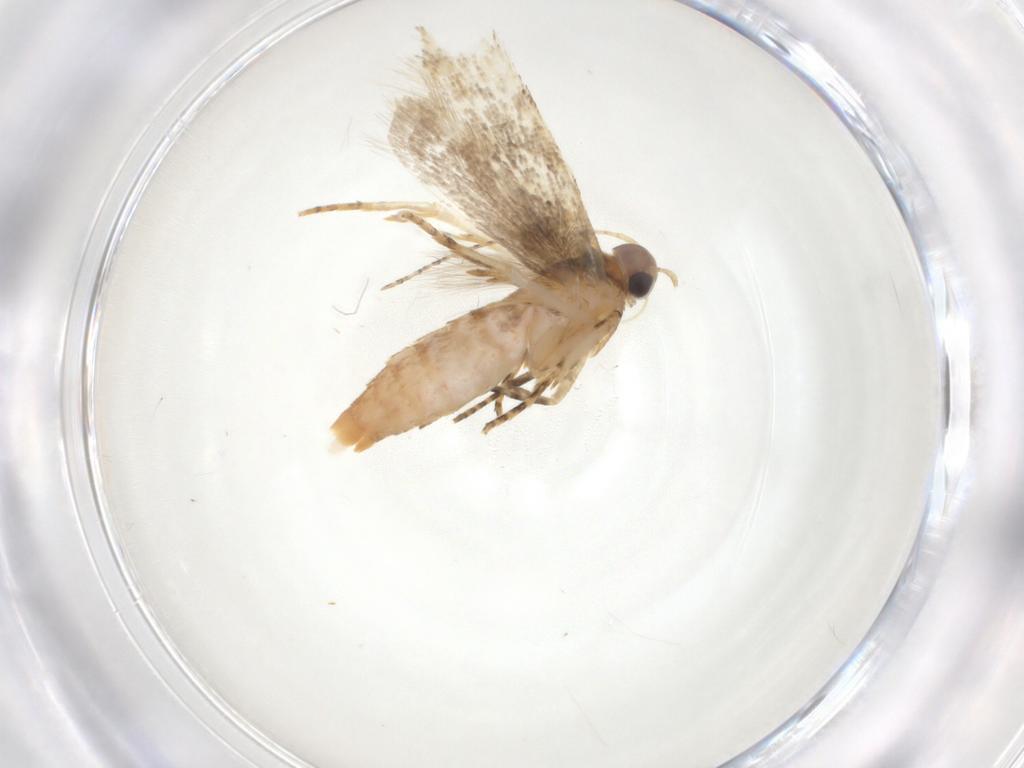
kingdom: Animalia
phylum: Arthropoda
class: Insecta
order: Lepidoptera
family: Gelechiidae
